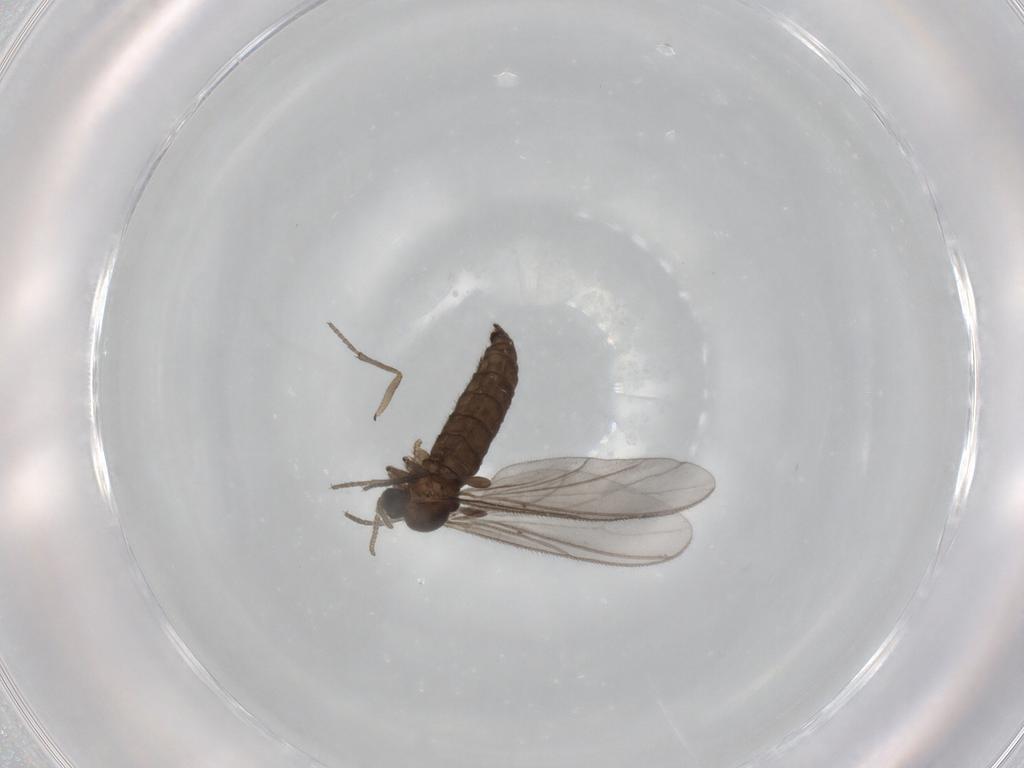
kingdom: Animalia
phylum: Arthropoda
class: Insecta
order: Diptera
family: Sciaridae
